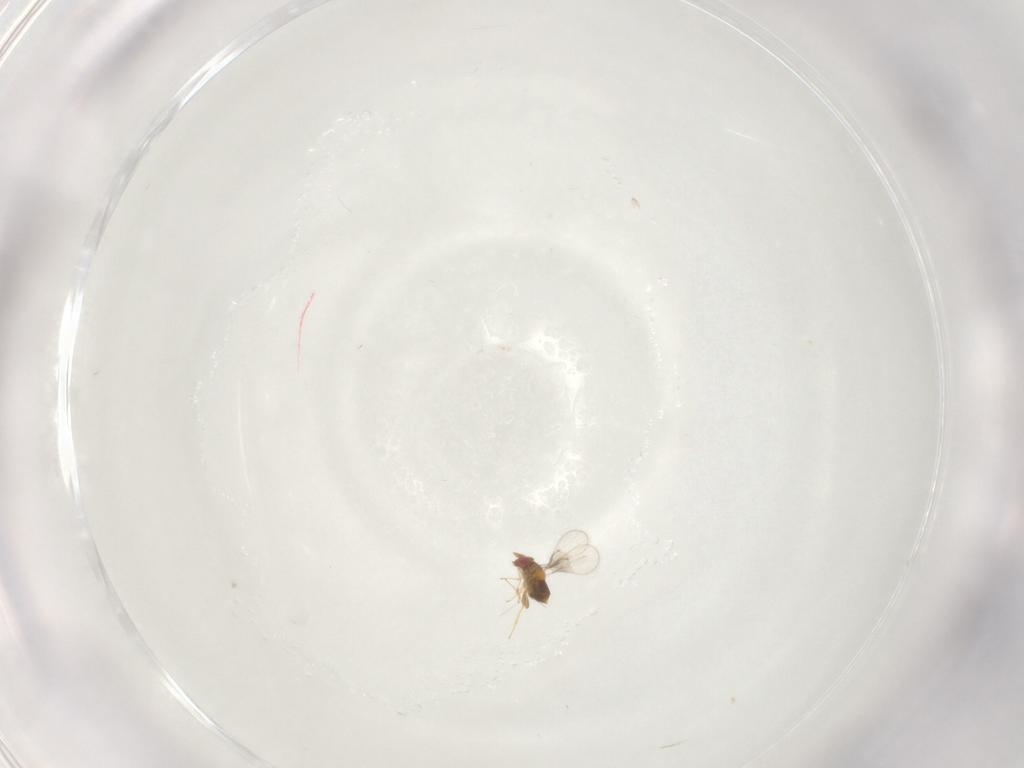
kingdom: Animalia
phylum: Arthropoda
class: Insecta
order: Hymenoptera
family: Trichogrammatidae
